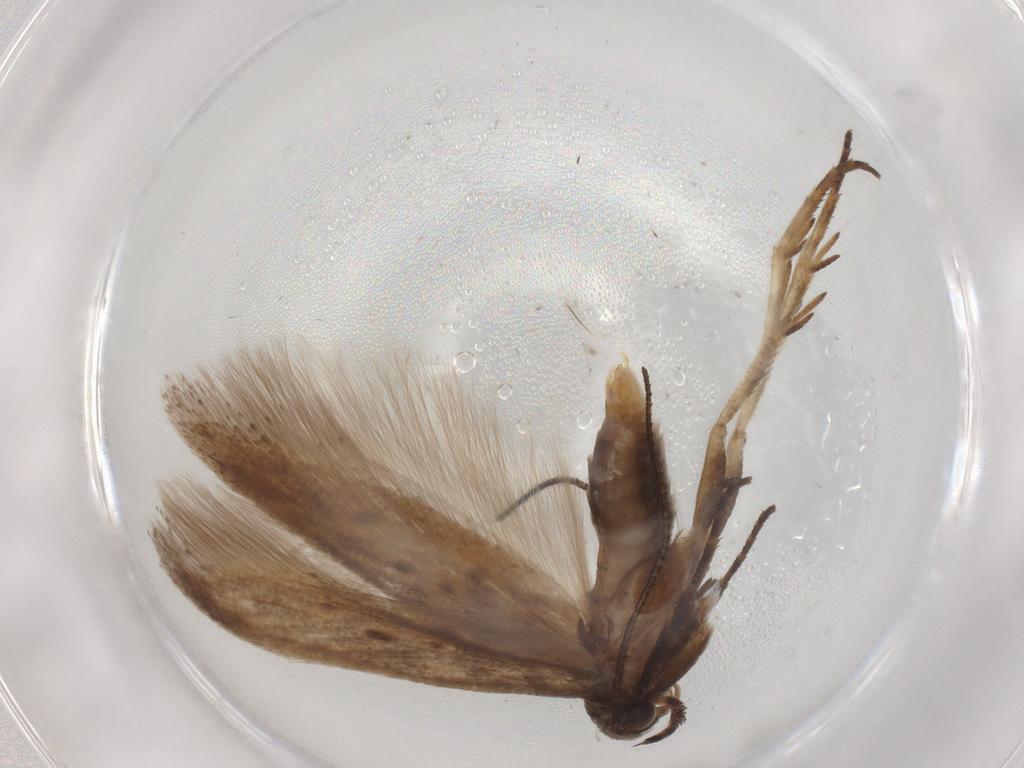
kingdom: Animalia
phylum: Arthropoda
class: Insecta
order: Lepidoptera
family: Gelechiidae
